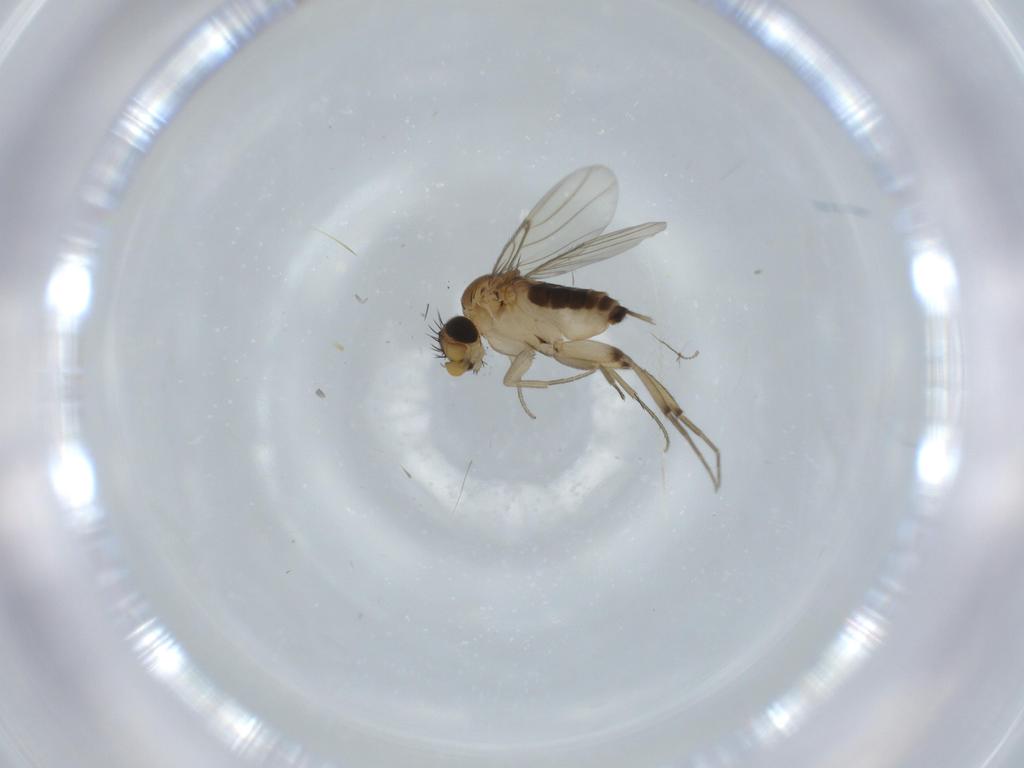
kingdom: Animalia
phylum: Arthropoda
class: Insecta
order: Diptera
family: Chironomidae
